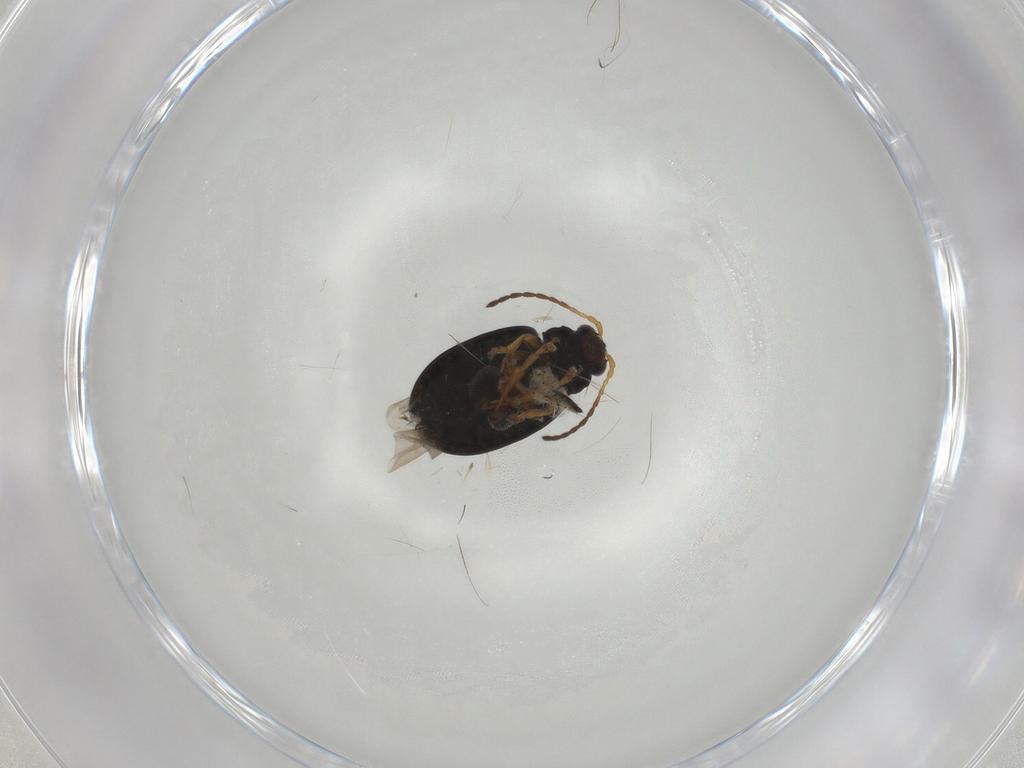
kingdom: Animalia
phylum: Arthropoda
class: Insecta
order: Coleoptera
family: Chrysomelidae
